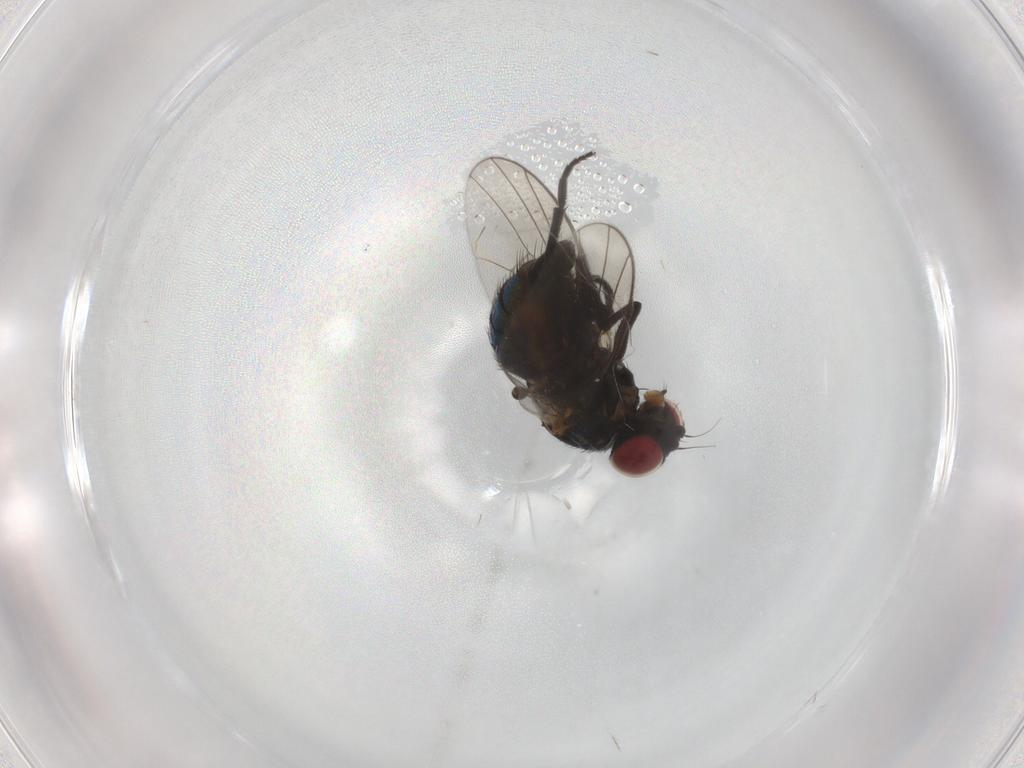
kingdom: Animalia
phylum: Arthropoda
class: Insecta
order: Diptera
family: Agromyzidae
